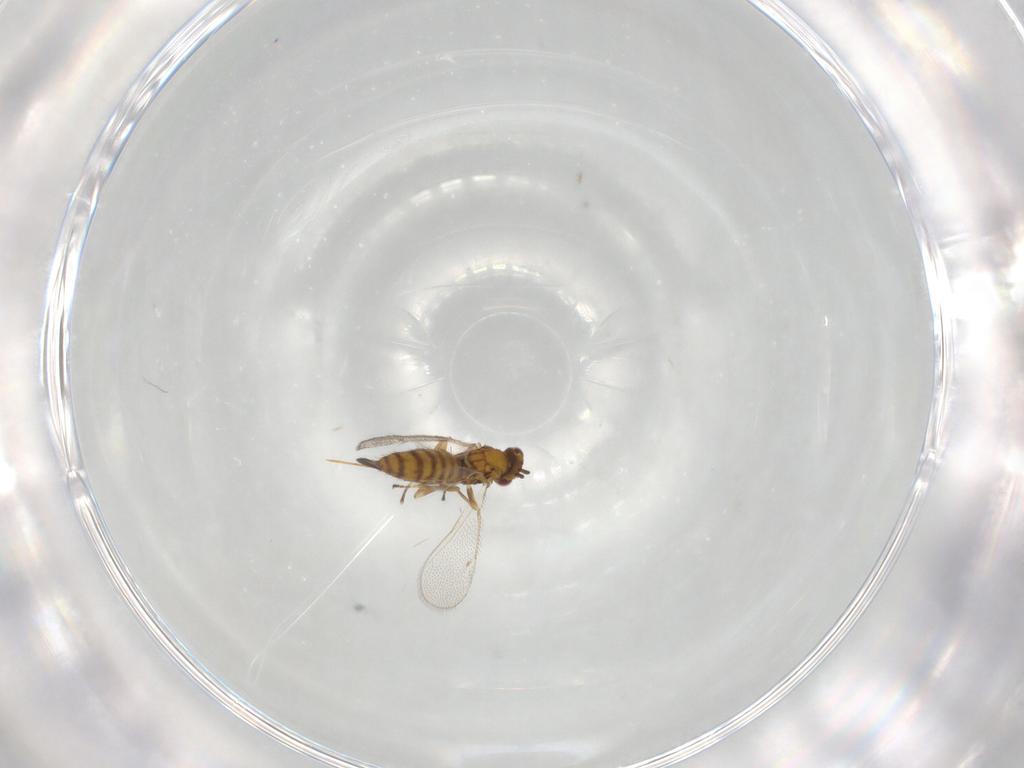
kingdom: Animalia
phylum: Arthropoda
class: Insecta
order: Hymenoptera
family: Eulophidae
